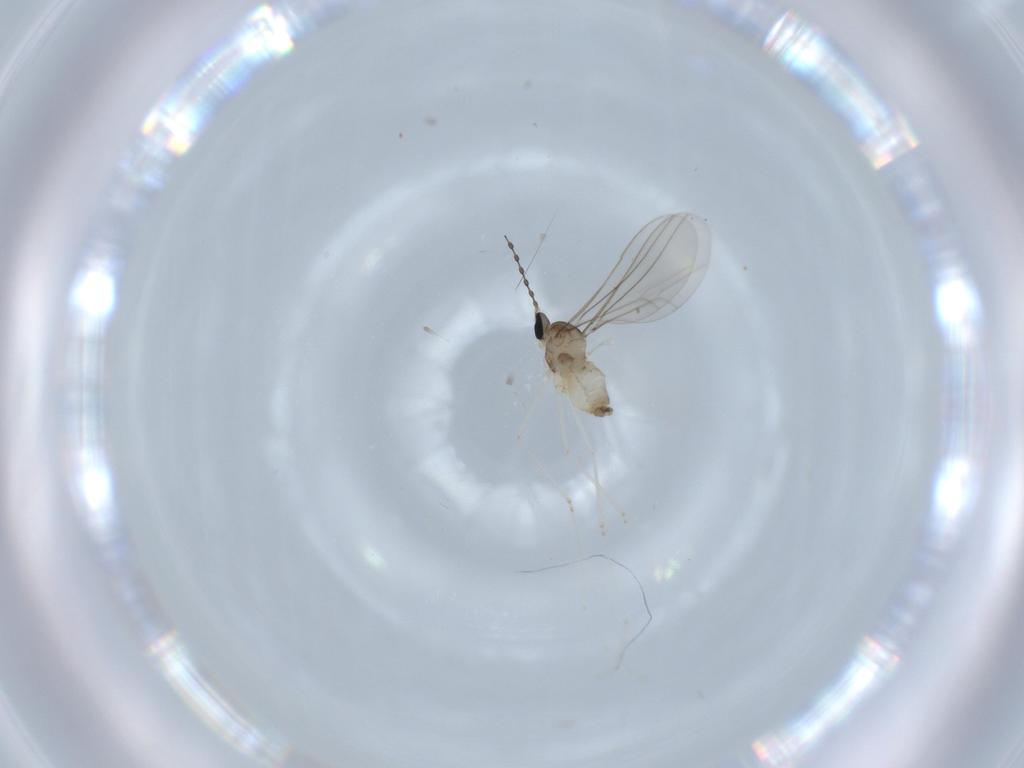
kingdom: Animalia
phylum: Arthropoda
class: Insecta
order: Diptera
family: Cecidomyiidae
